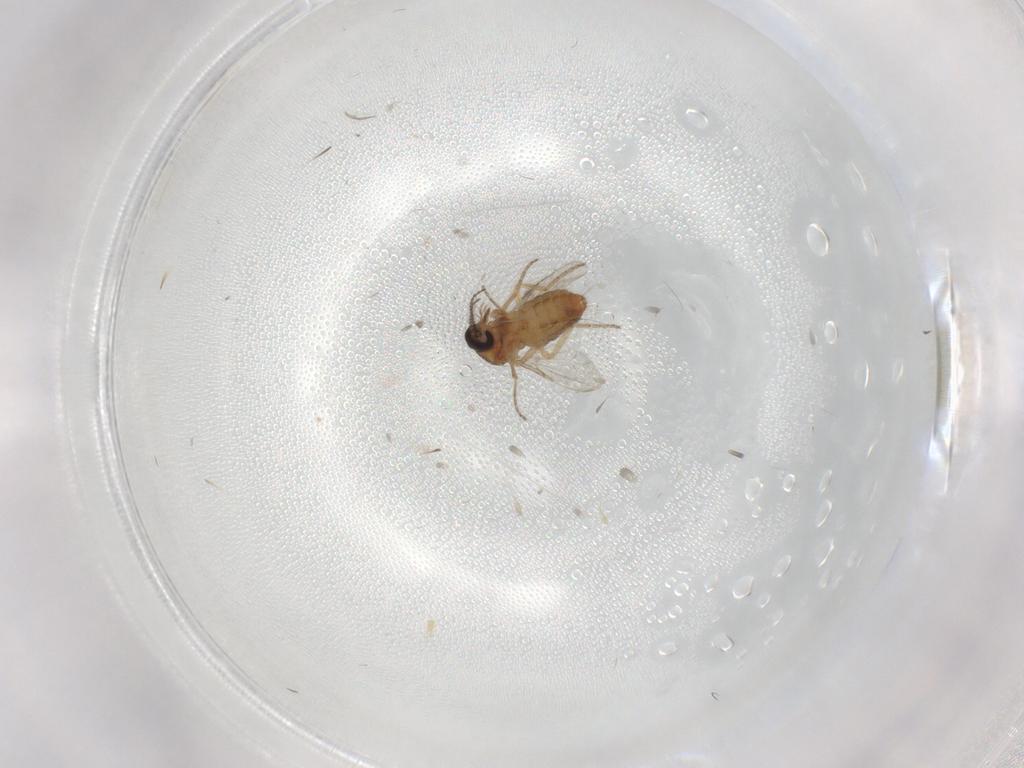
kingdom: Animalia
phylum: Arthropoda
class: Insecta
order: Diptera
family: Ceratopogonidae
